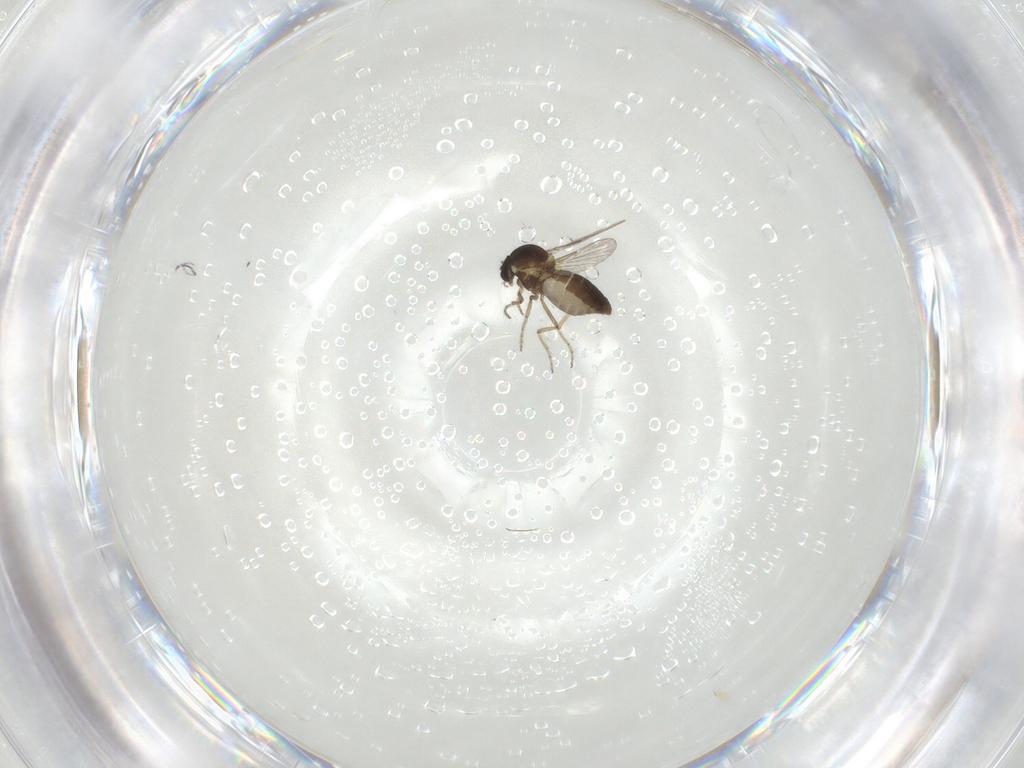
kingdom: Animalia
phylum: Arthropoda
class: Insecta
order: Diptera
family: Ceratopogonidae
